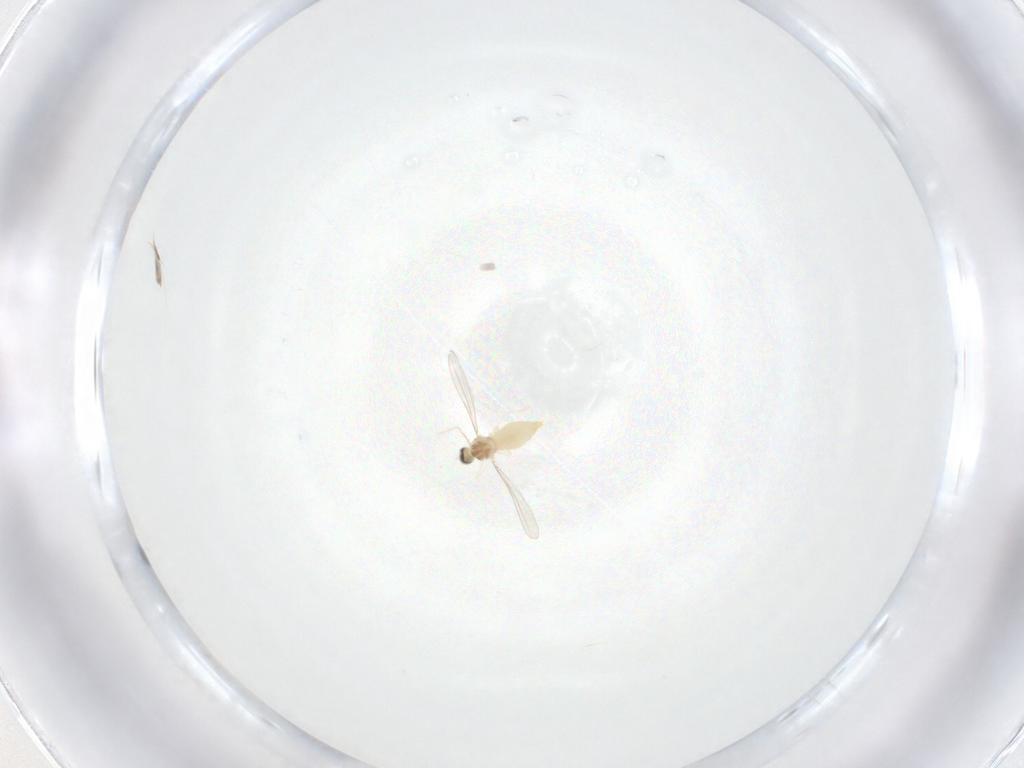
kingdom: Animalia
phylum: Arthropoda
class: Insecta
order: Diptera
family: Cecidomyiidae
